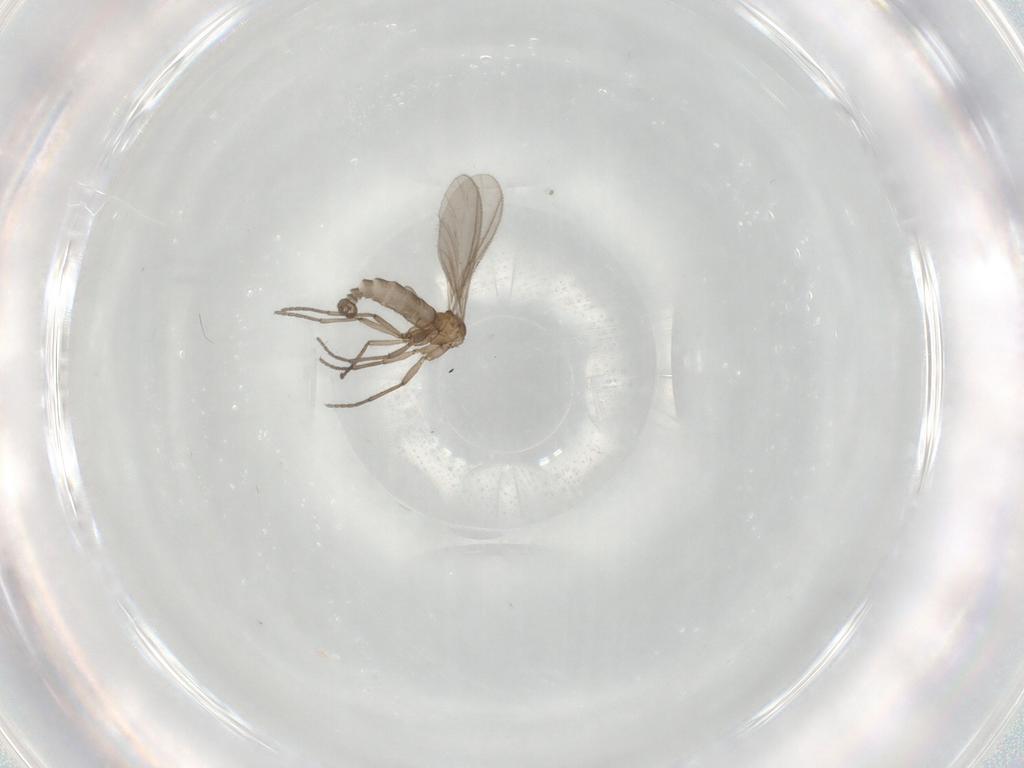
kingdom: Animalia
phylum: Arthropoda
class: Insecta
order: Diptera
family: Sciaridae
